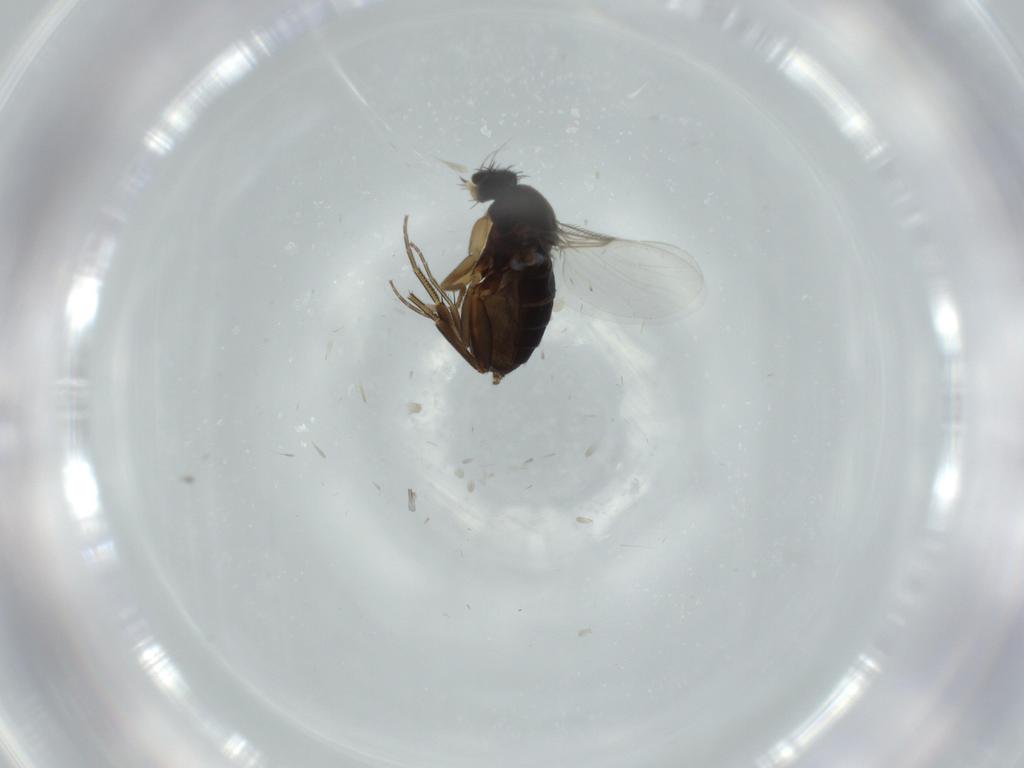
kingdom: Animalia
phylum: Arthropoda
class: Insecta
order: Diptera
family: Phoridae
